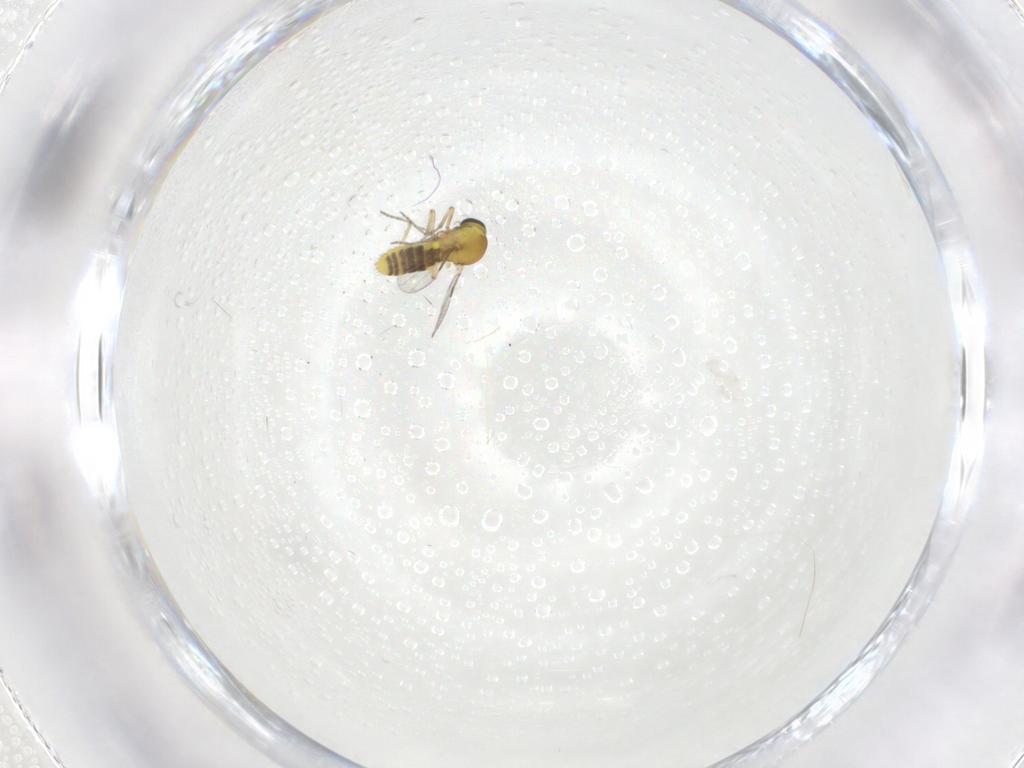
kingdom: Animalia
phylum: Arthropoda
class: Insecta
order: Diptera
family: Ceratopogonidae
